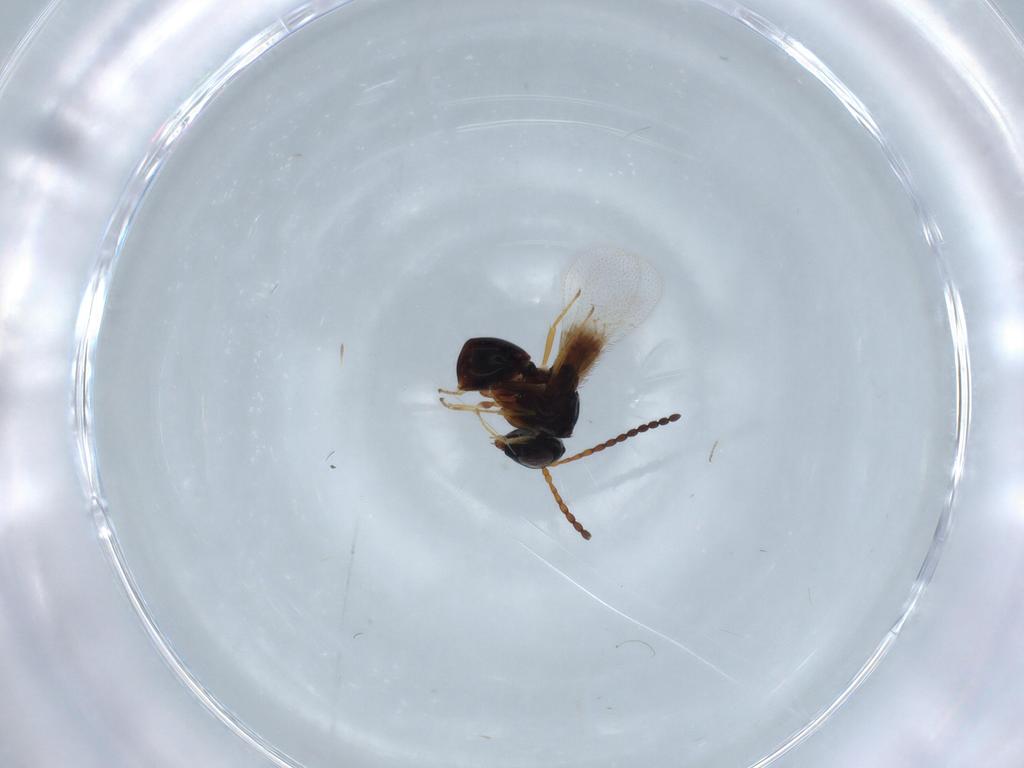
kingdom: Animalia
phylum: Arthropoda
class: Insecta
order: Hymenoptera
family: Figitidae
